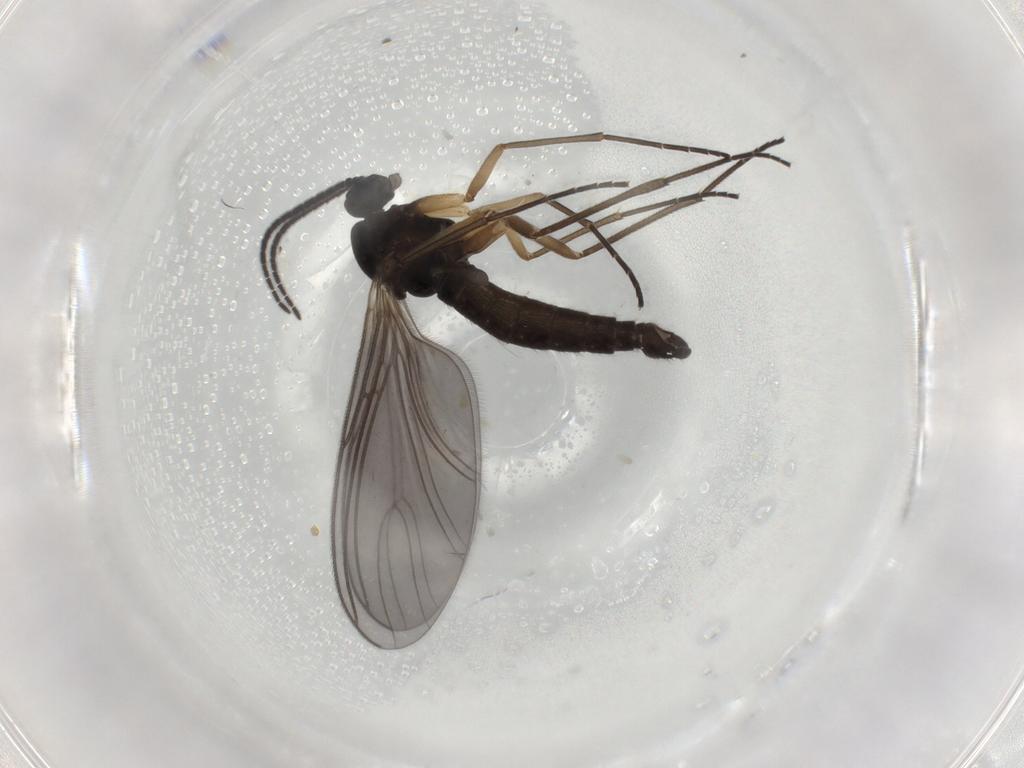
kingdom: Animalia
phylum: Arthropoda
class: Insecta
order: Diptera
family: Sciaridae
